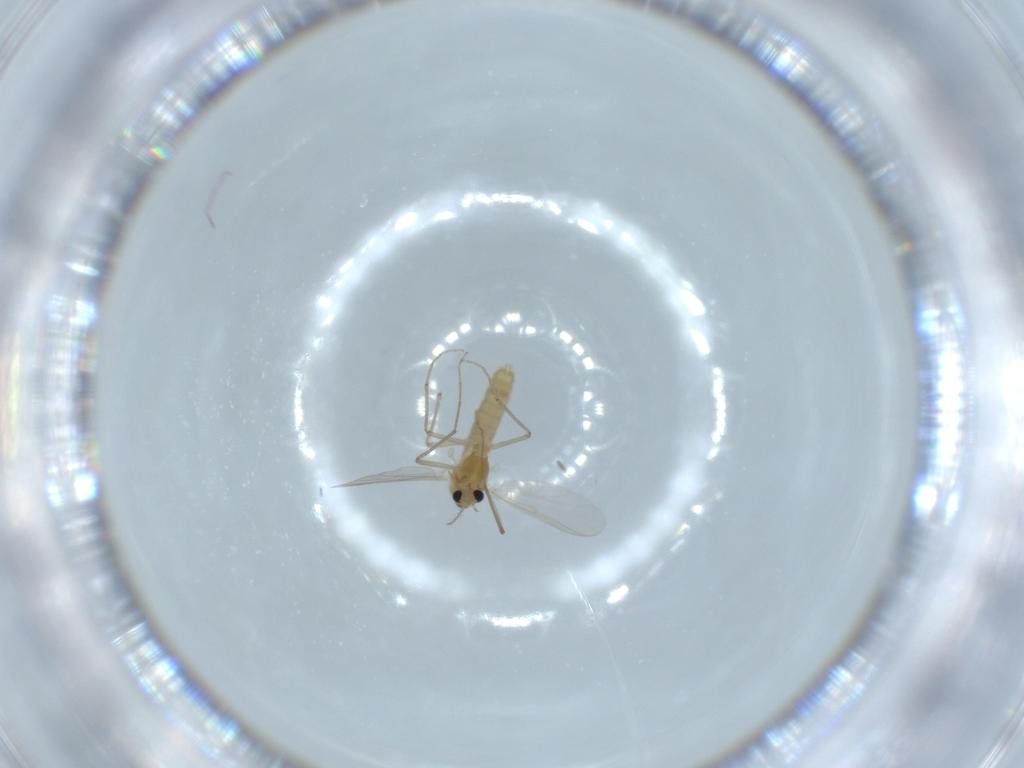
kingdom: Animalia
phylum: Arthropoda
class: Insecta
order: Diptera
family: Chironomidae
